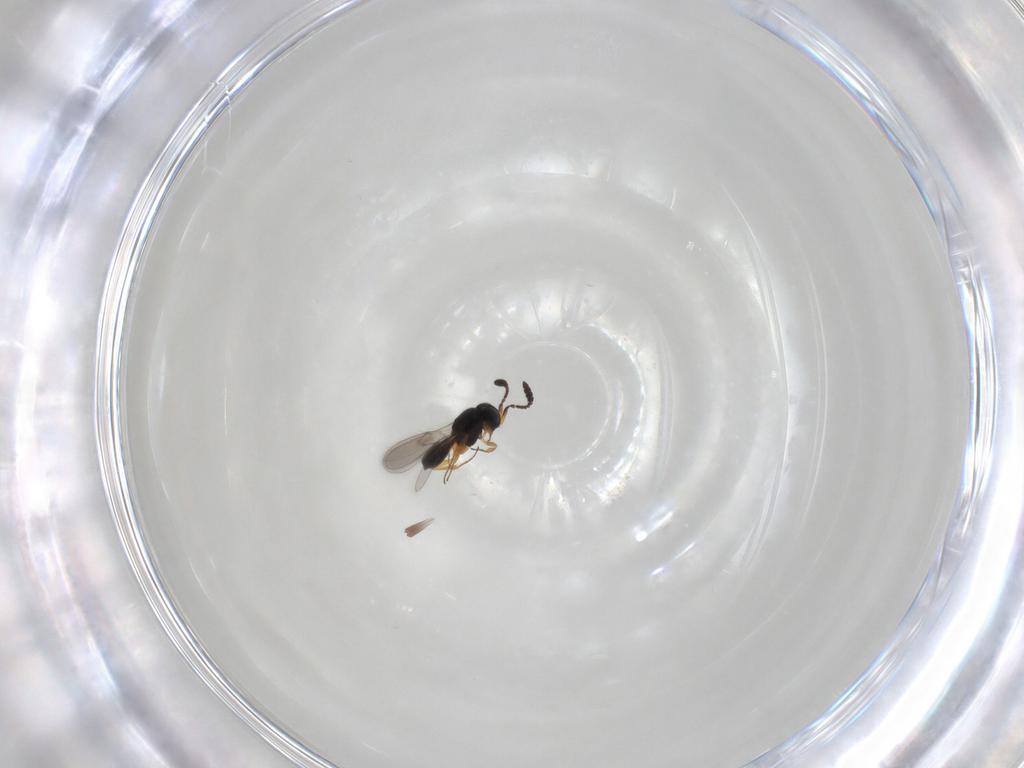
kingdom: Animalia
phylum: Arthropoda
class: Insecta
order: Hymenoptera
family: Scelionidae
